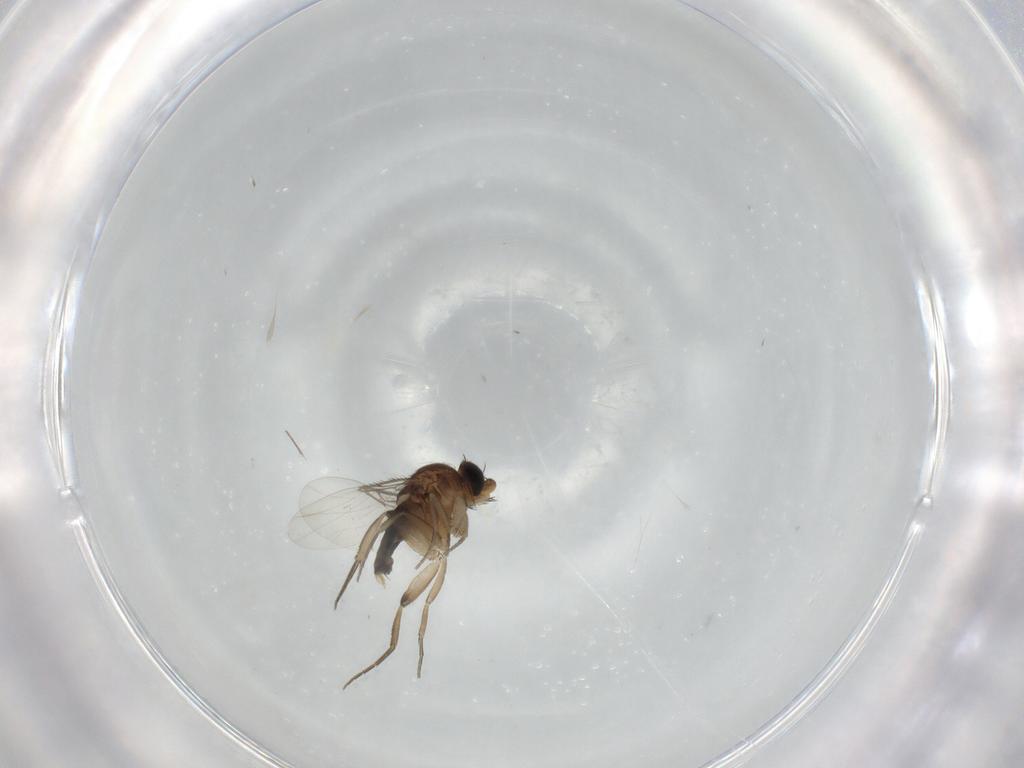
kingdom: Animalia
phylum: Arthropoda
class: Insecta
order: Diptera
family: Phoridae
